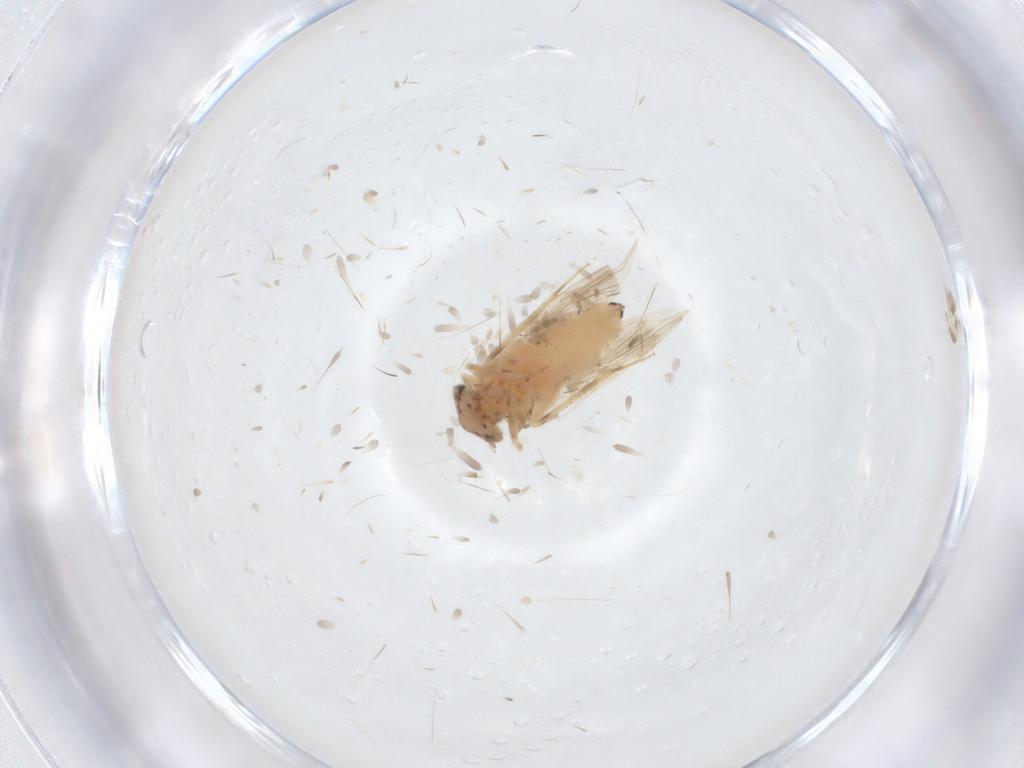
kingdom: Animalia
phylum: Arthropoda
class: Insecta
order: Psocodea
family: Lepidopsocidae
